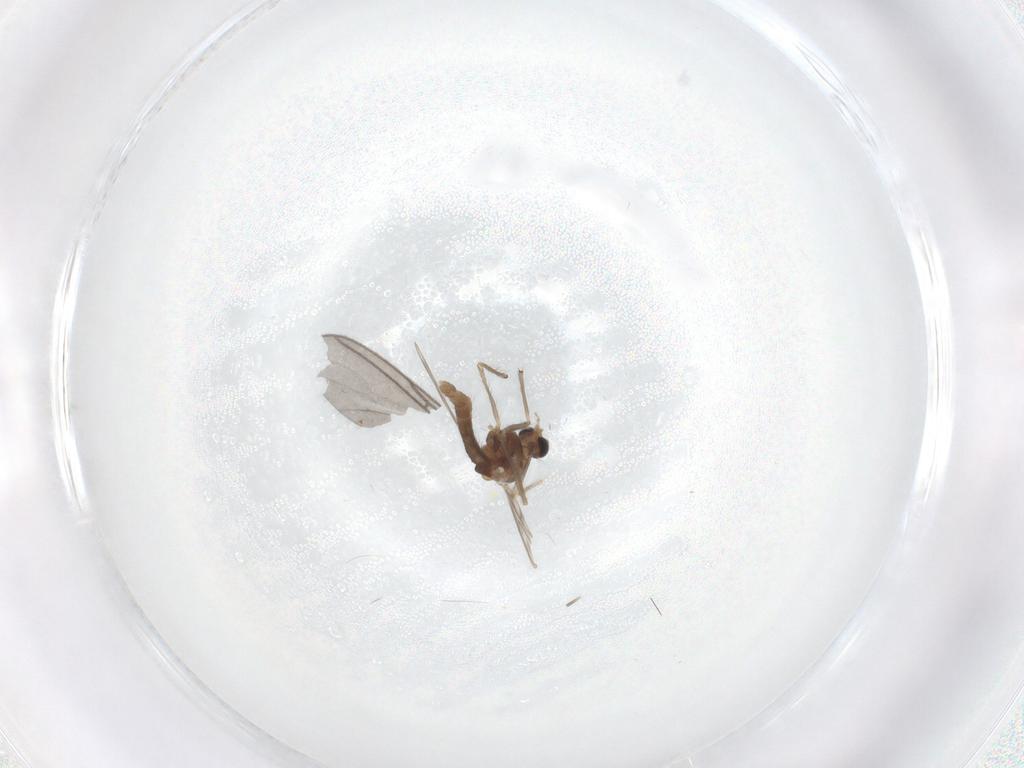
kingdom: Animalia
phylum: Arthropoda
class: Insecta
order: Diptera
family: Chironomidae
